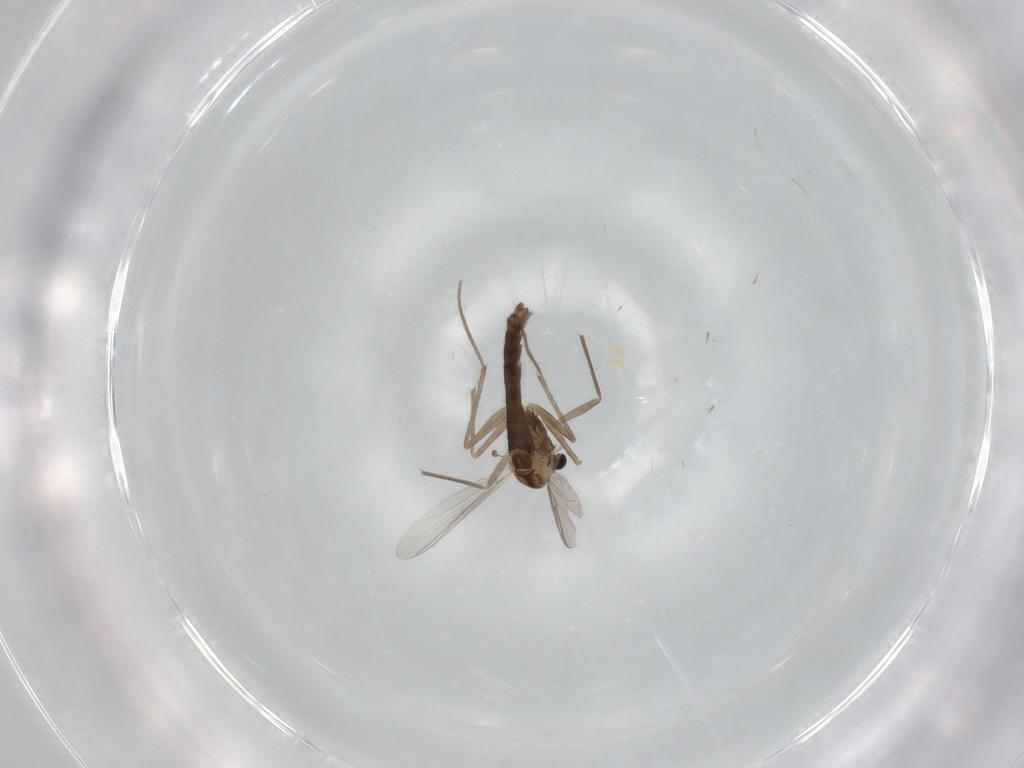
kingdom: Animalia
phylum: Arthropoda
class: Insecta
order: Diptera
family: Chironomidae
